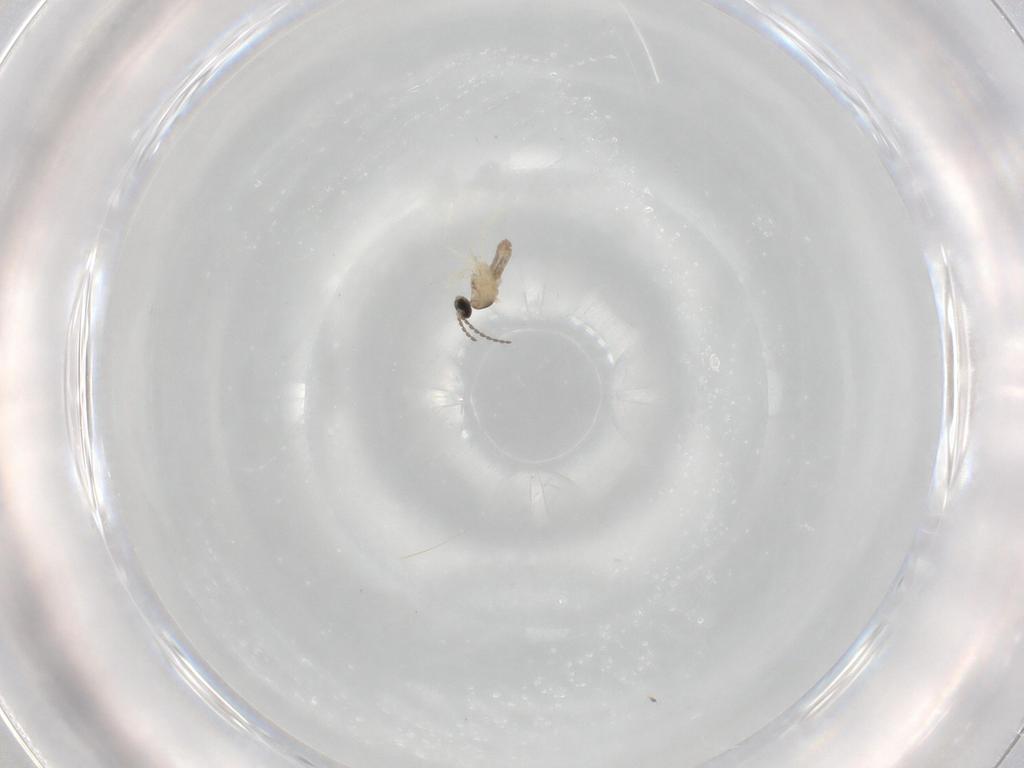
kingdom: Animalia
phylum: Arthropoda
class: Insecta
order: Diptera
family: Cecidomyiidae
